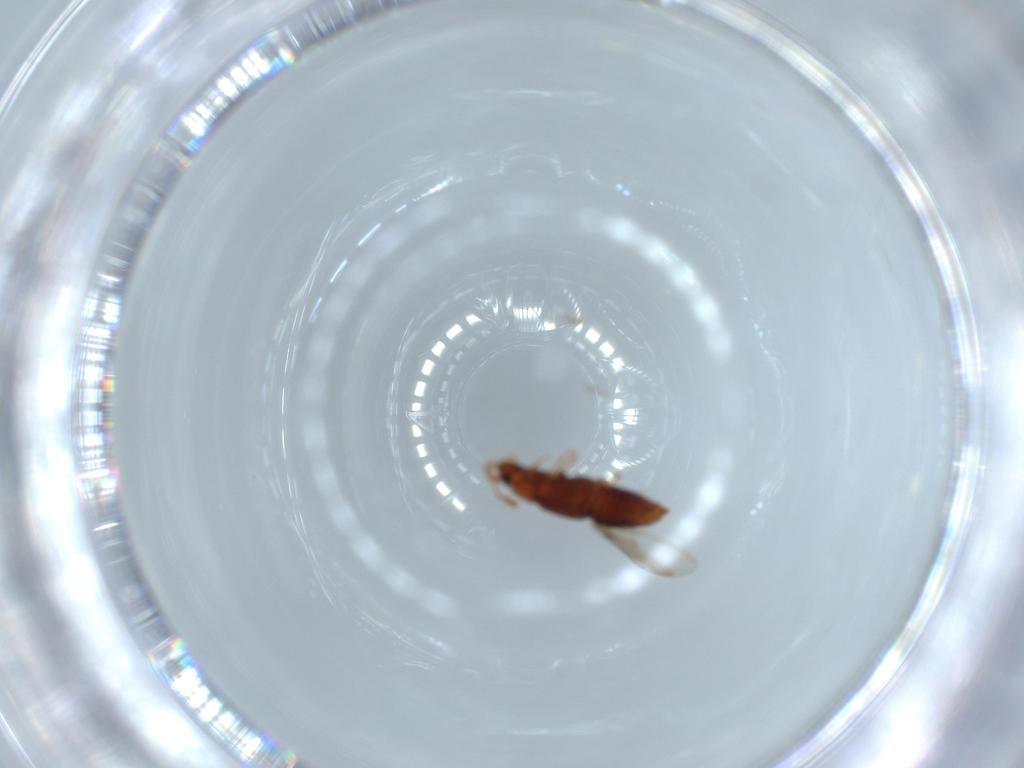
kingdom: Animalia
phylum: Arthropoda
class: Insecta
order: Coleoptera
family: Staphylinidae
